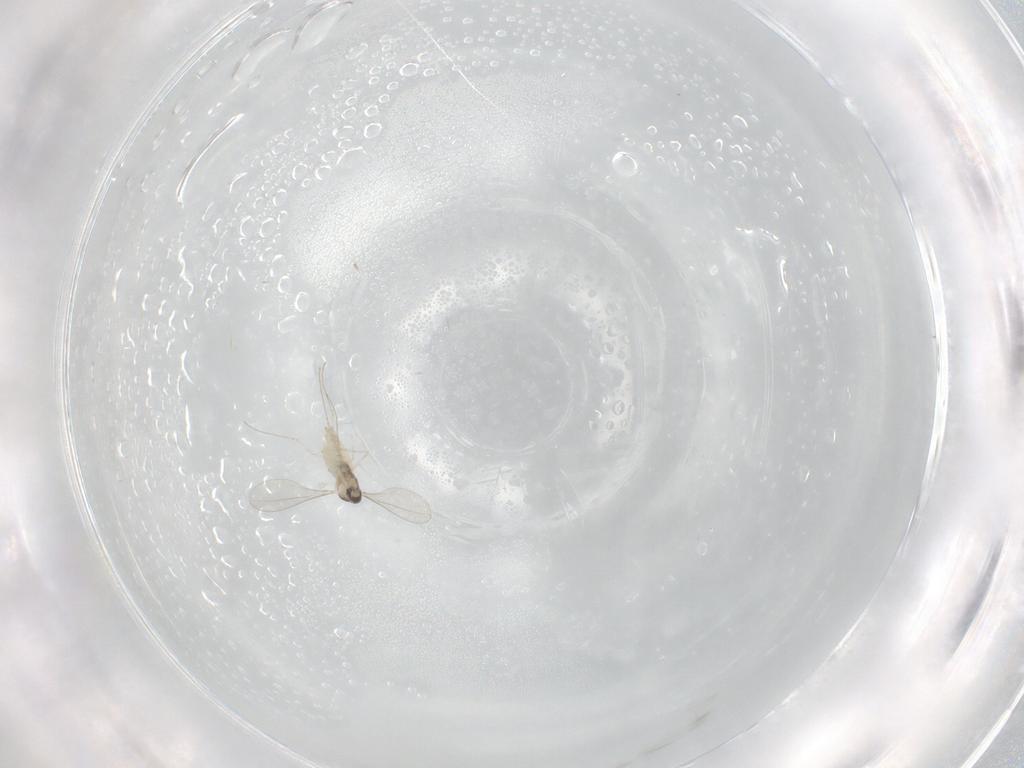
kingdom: Animalia
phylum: Arthropoda
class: Insecta
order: Diptera
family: Cecidomyiidae
